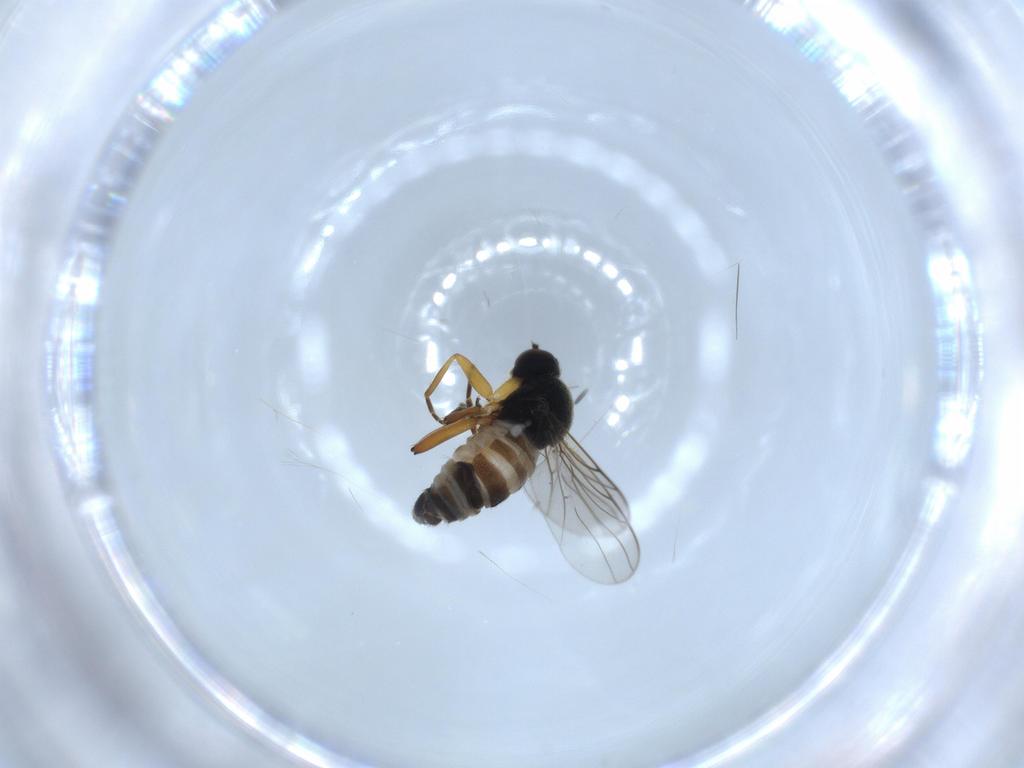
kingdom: Animalia
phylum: Arthropoda
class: Insecta
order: Diptera
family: Hybotidae
